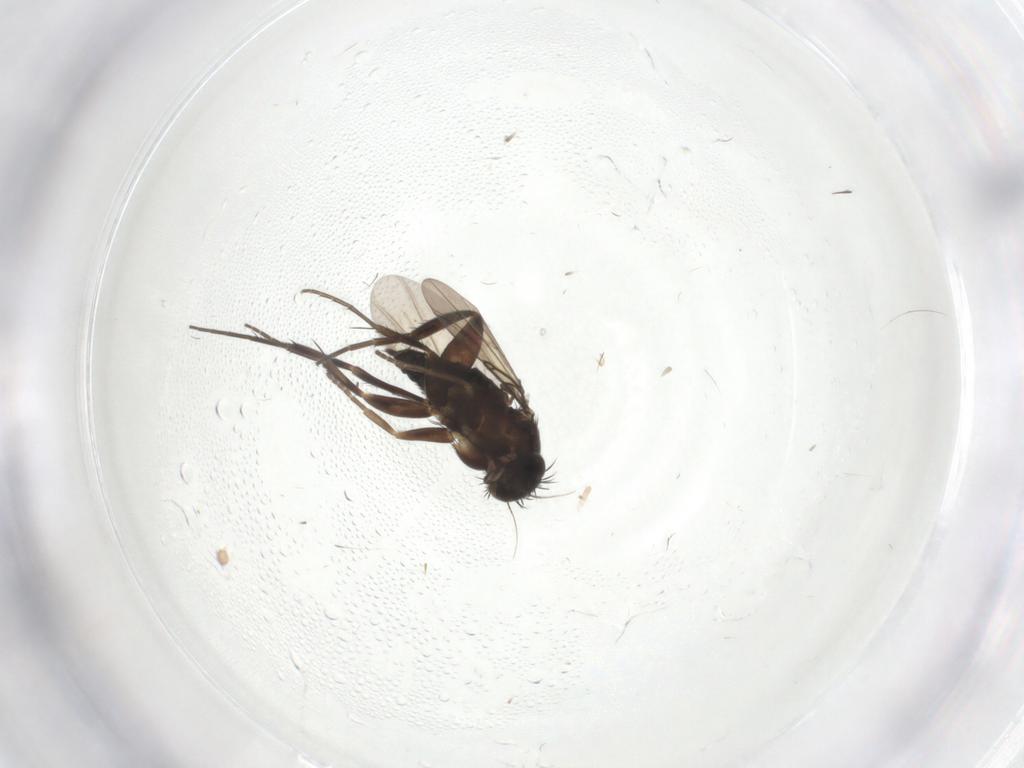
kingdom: Animalia
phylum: Arthropoda
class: Insecta
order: Diptera
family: Phoridae
